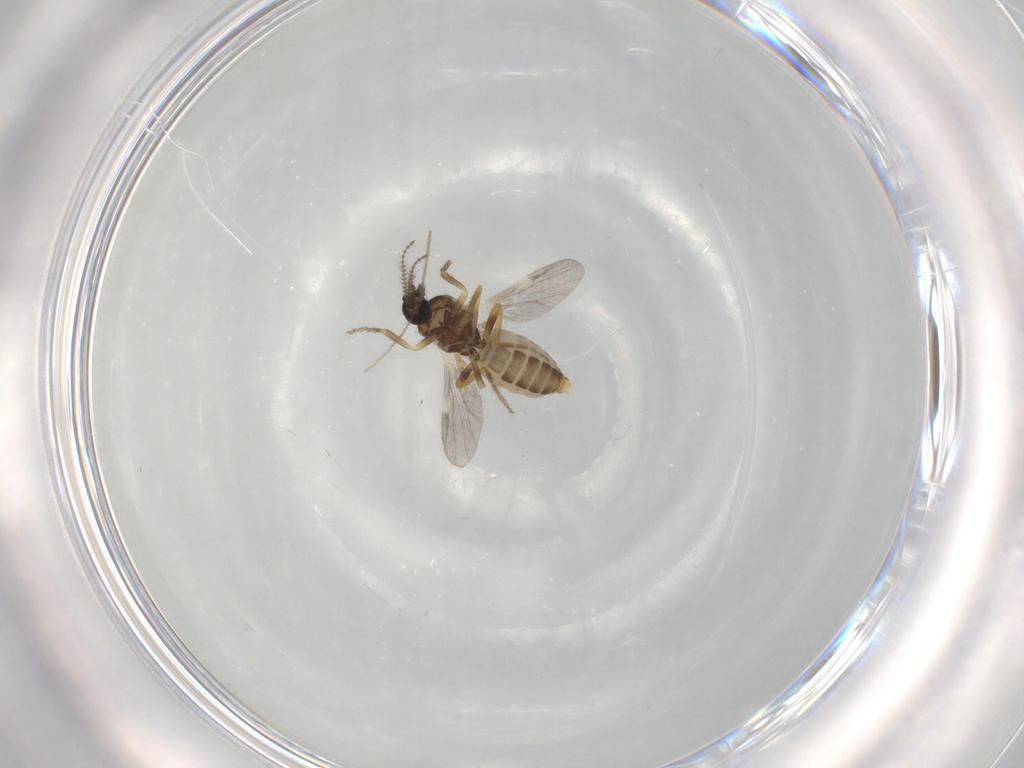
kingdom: Animalia
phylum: Arthropoda
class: Insecta
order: Diptera
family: Ceratopogonidae
